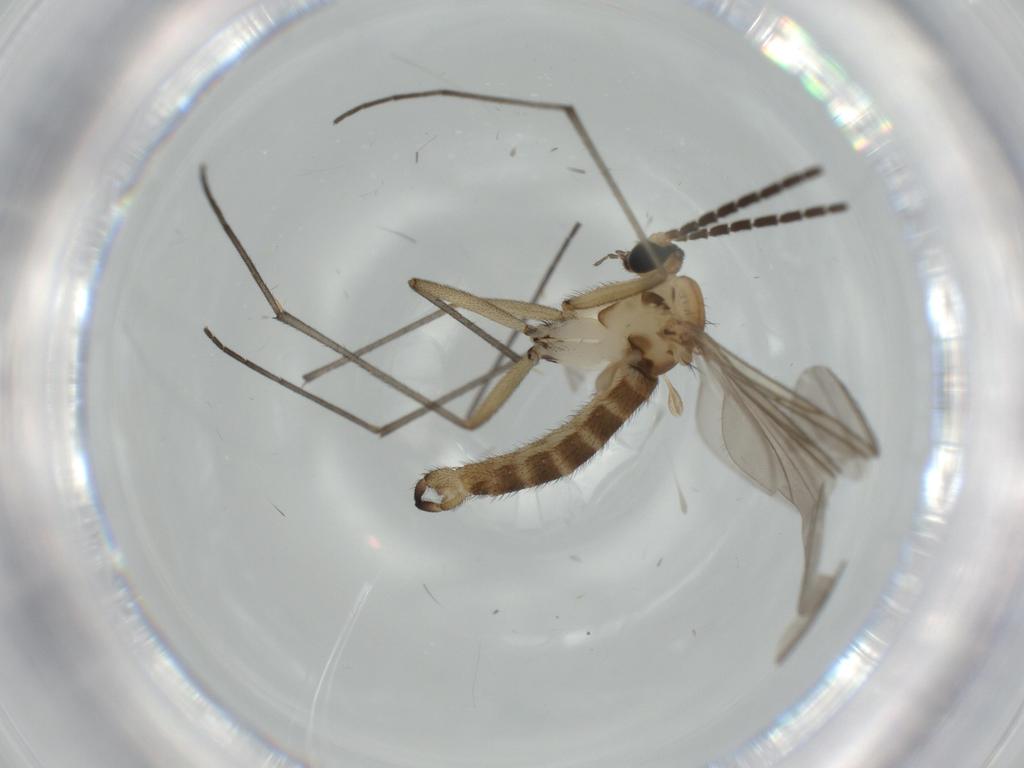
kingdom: Animalia
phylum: Arthropoda
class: Insecta
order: Diptera
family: Sciaridae
